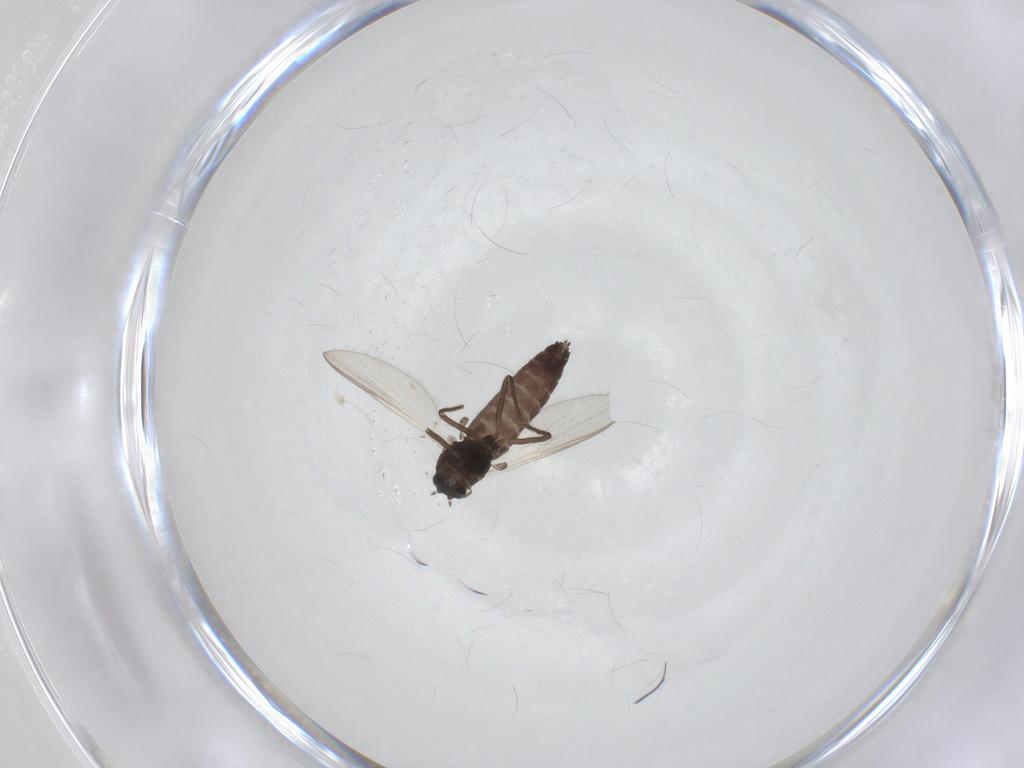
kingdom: Animalia
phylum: Arthropoda
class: Insecta
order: Diptera
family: Chironomidae
